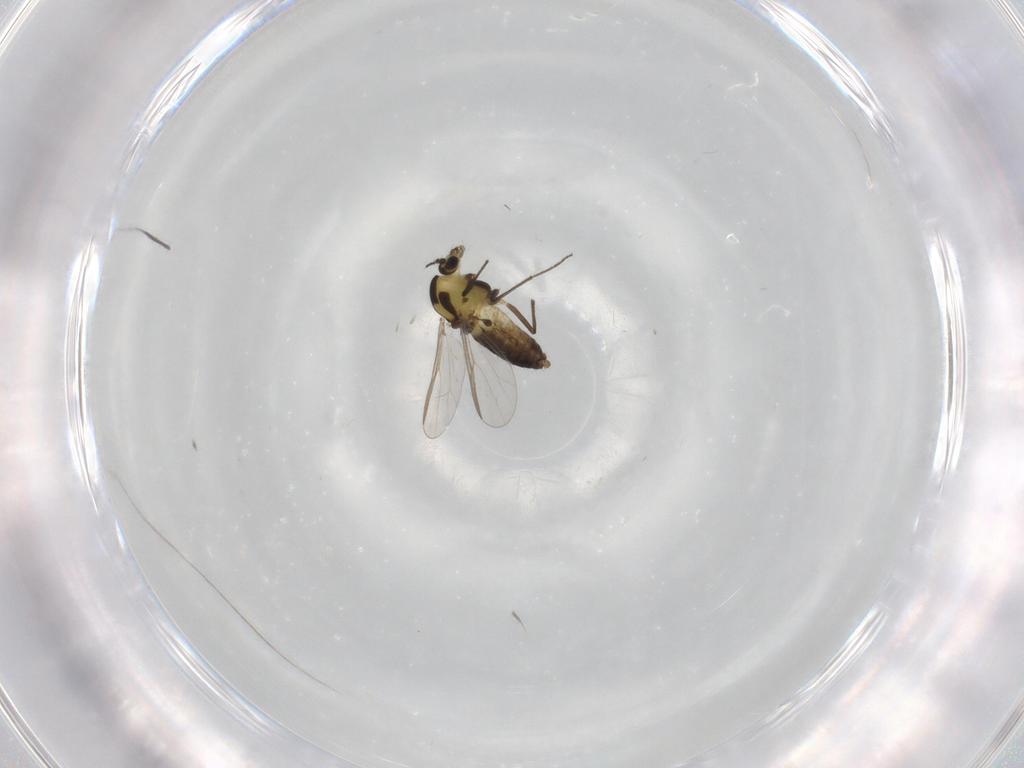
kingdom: Animalia
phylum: Arthropoda
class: Insecta
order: Diptera
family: Chironomidae
